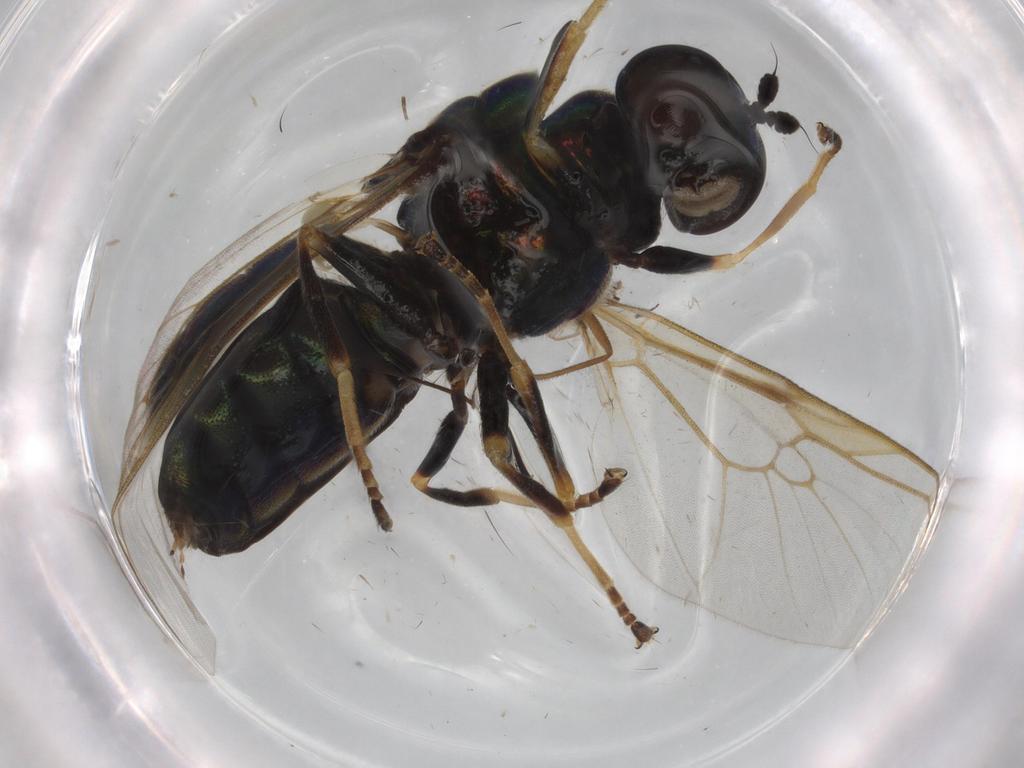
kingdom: Animalia
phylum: Arthropoda
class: Insecta
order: Diptera
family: Stratiomyidae
